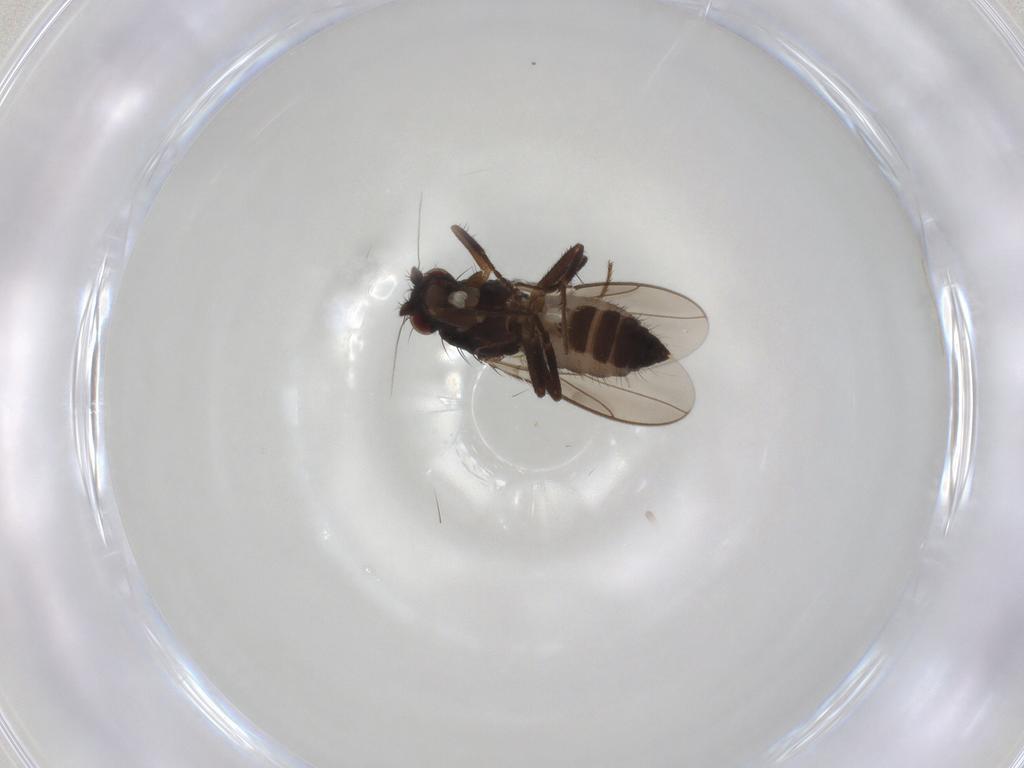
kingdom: Animalia
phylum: Arthropoda
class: Insecta
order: Diptera
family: Sphaeroceridae
